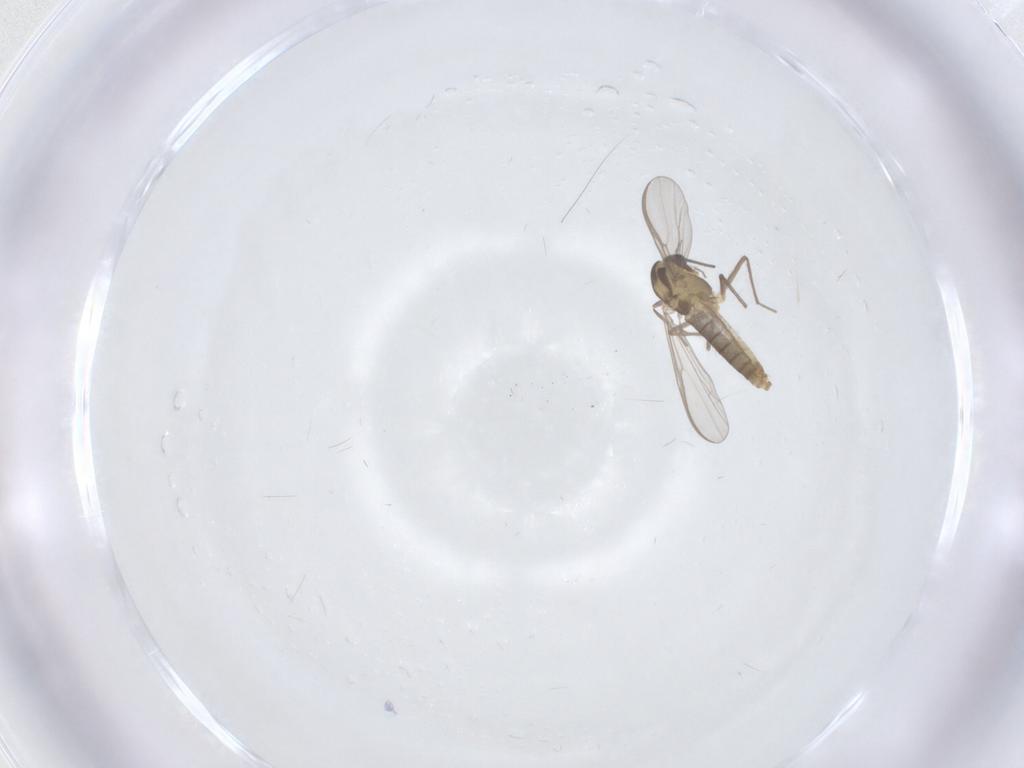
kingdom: Animalia
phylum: Arthropoda
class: Insecta
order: Diptera
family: Chironomidae
